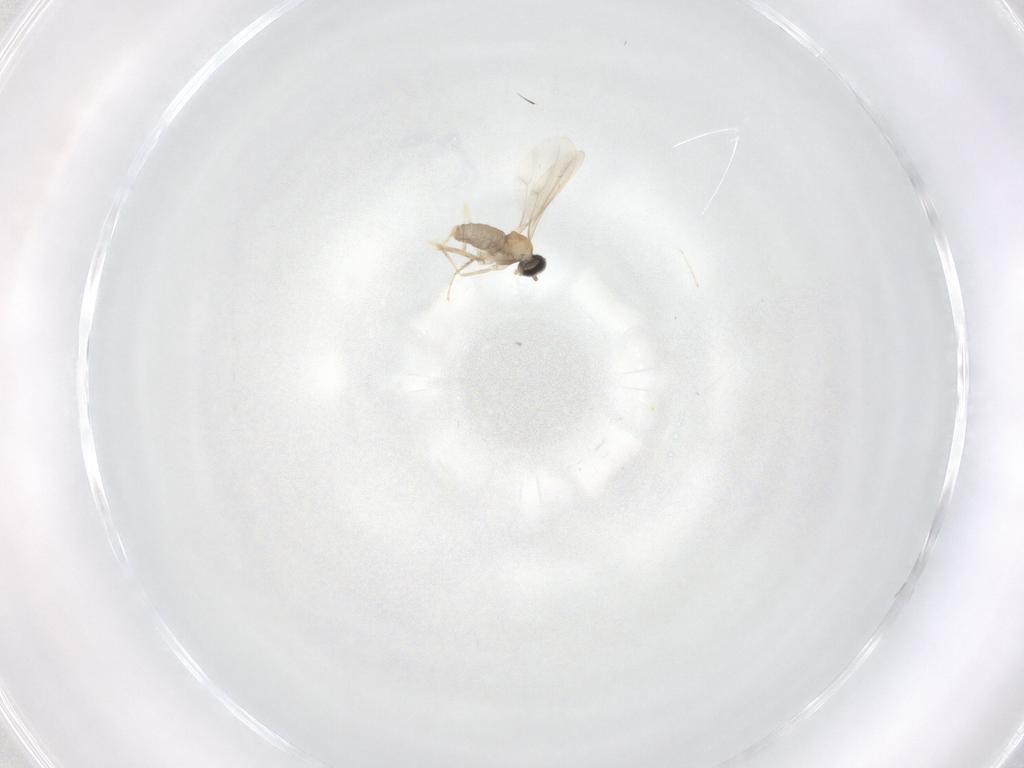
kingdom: Animalia
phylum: Arthropoda
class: Insecta
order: Diptera
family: Cecidomyiidae
